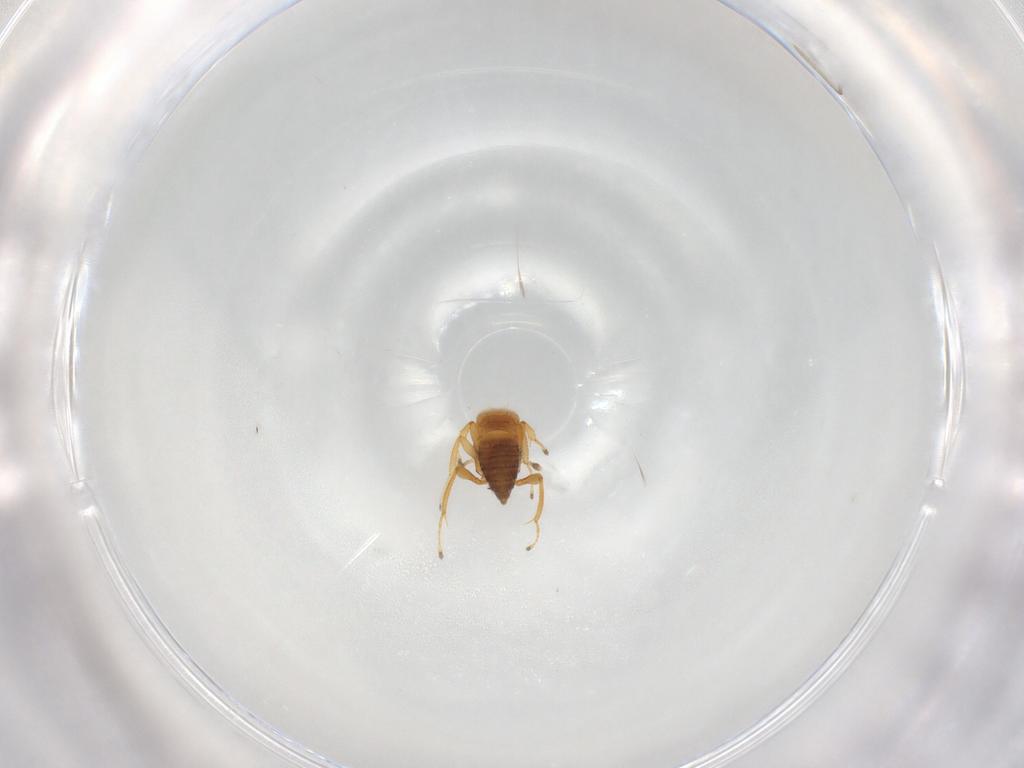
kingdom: Animalia
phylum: Arthropoda
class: Insecta
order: Diptera
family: Sciaridae
